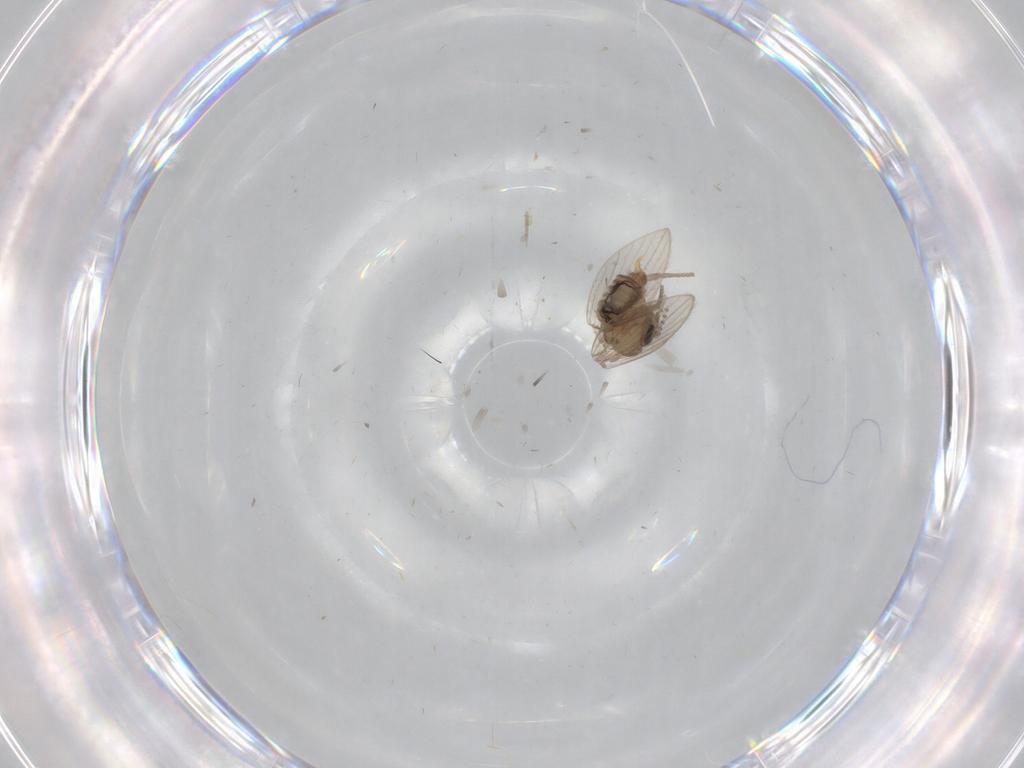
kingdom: Animalia
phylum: Arthropoda
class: Insecta
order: Diptera
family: Psychodidae
